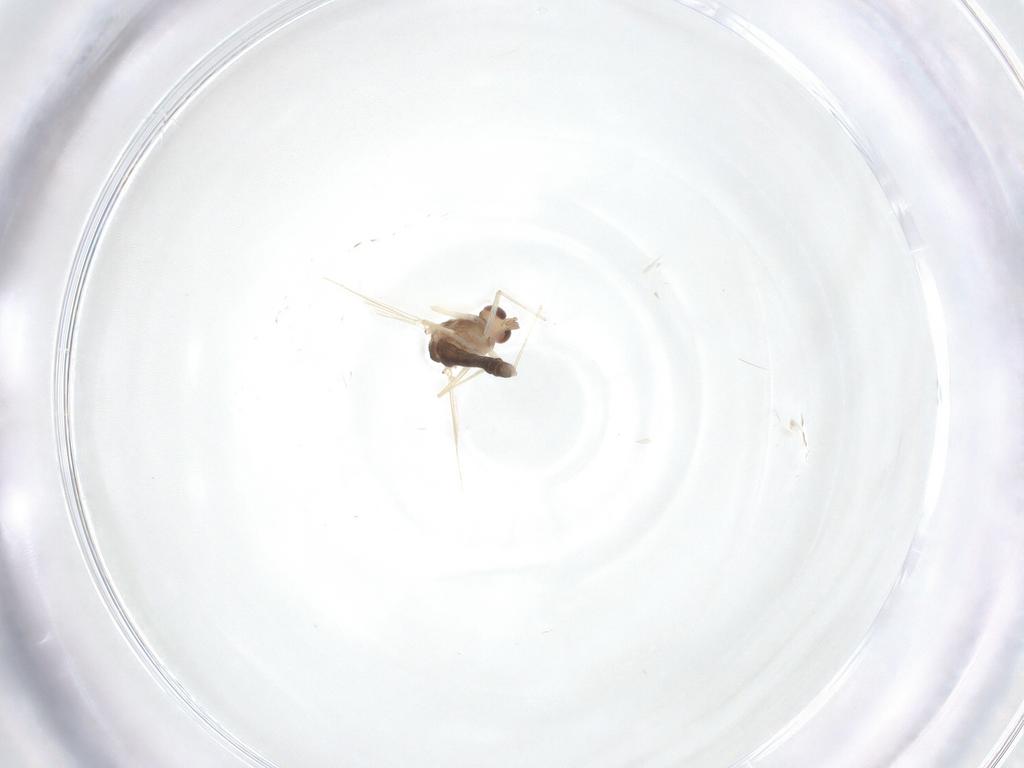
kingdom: Animalia
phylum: Arthropoda
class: Insecta
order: Diptera
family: Chironomidae
